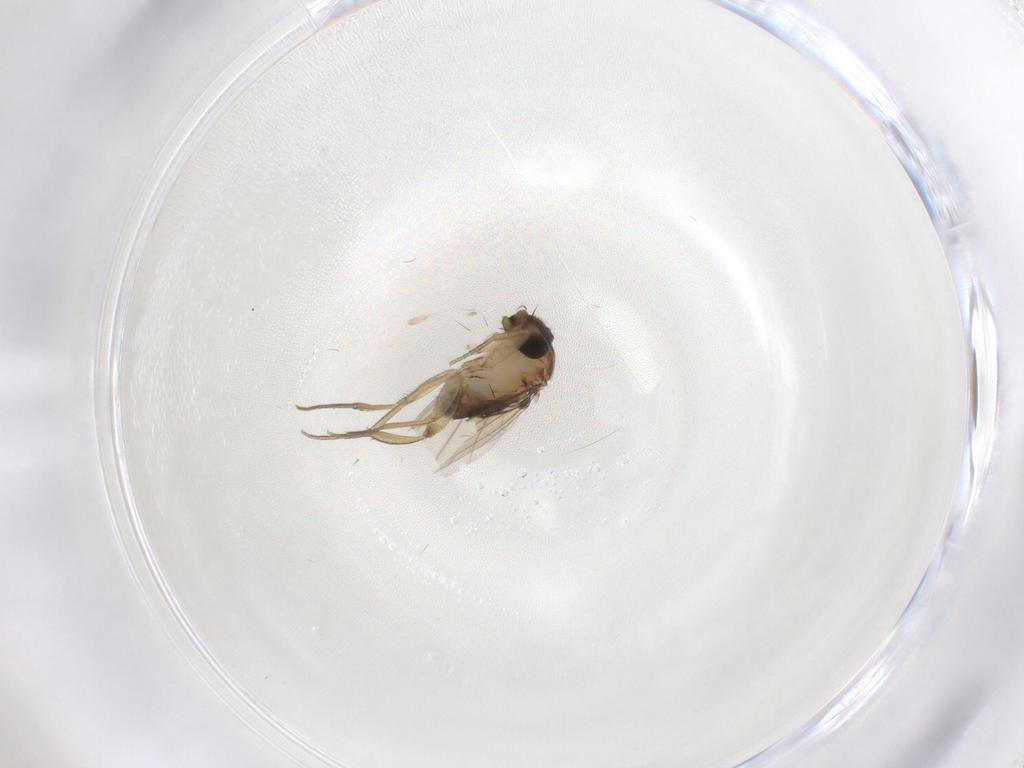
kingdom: Animalia
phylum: Arthropoda
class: Insecta
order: Diptera
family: Phoridae
